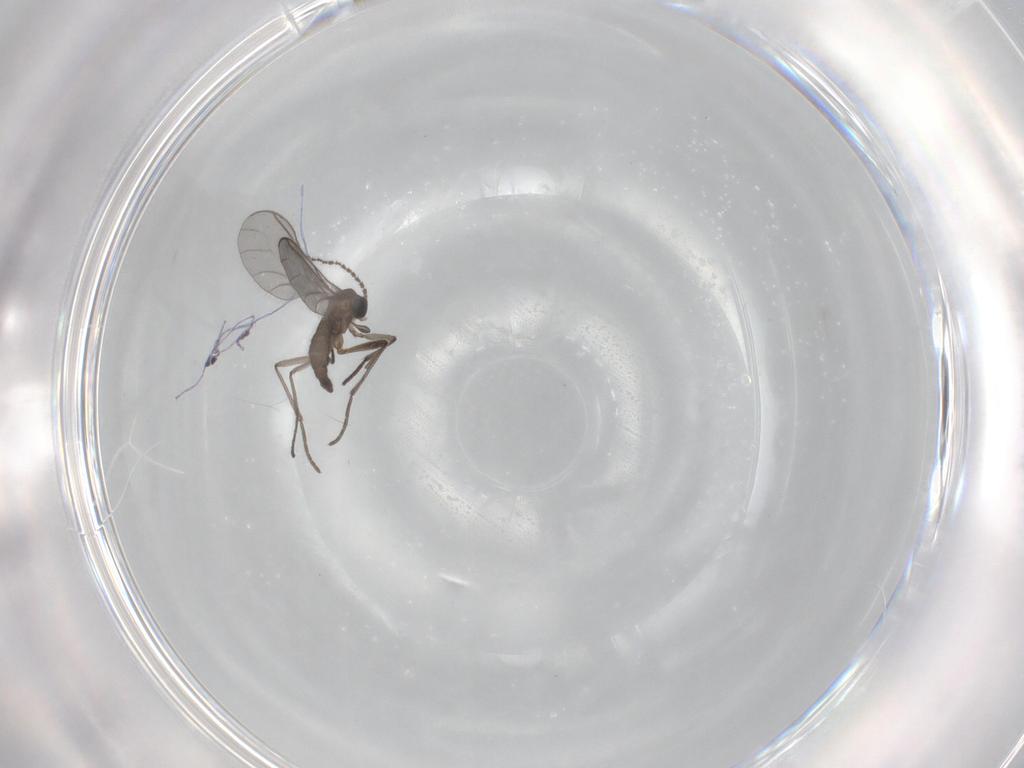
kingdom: Animalia
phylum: Arthropoda
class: Insecta
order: Diptera
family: Sciaridae
